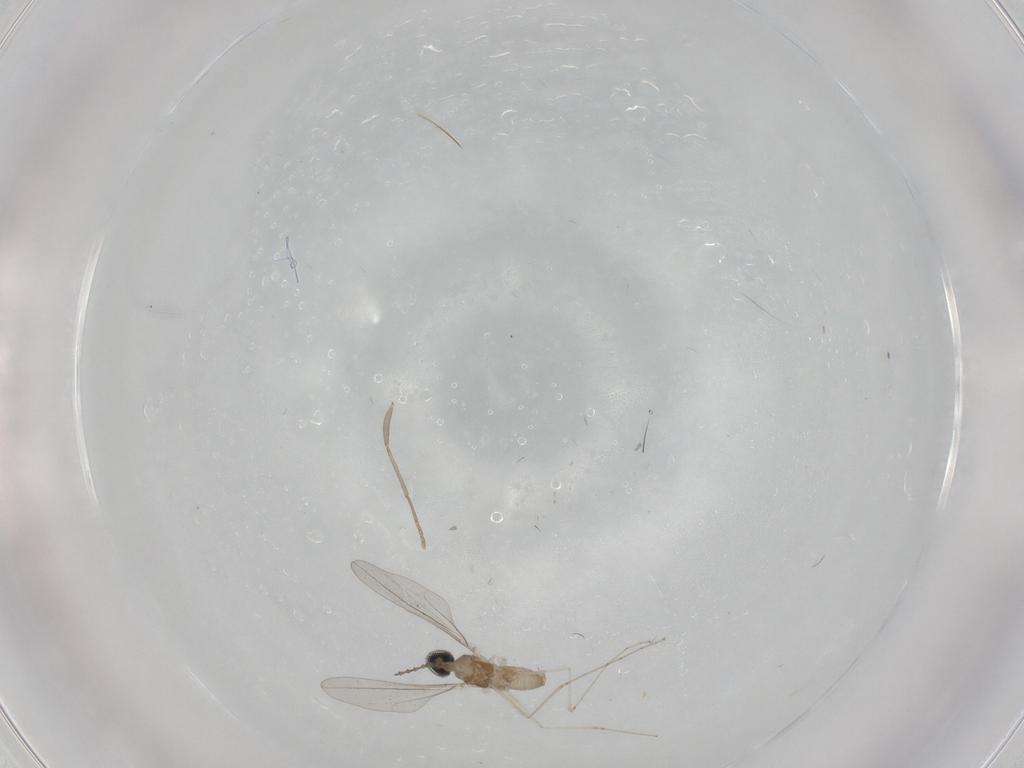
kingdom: Animalia
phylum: Arthropoda
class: Insecta
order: Diptera
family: Cecidomyiidae
